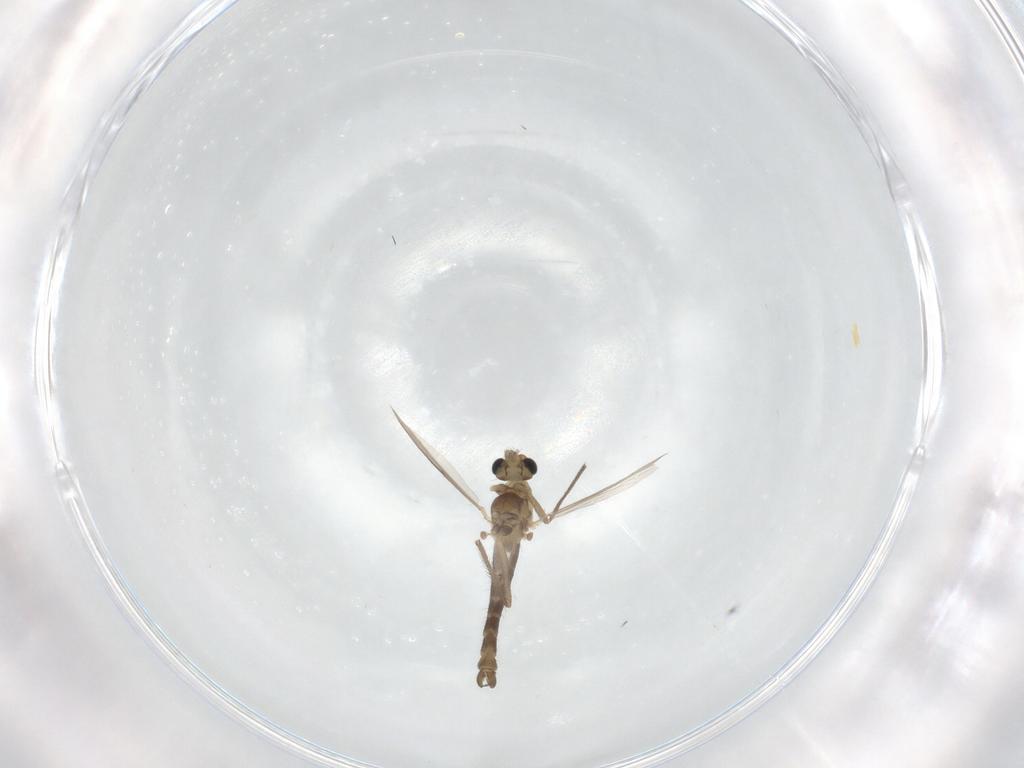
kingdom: Animalia
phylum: Arthropoda
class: Insecta
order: Diptera
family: Chironomidae
